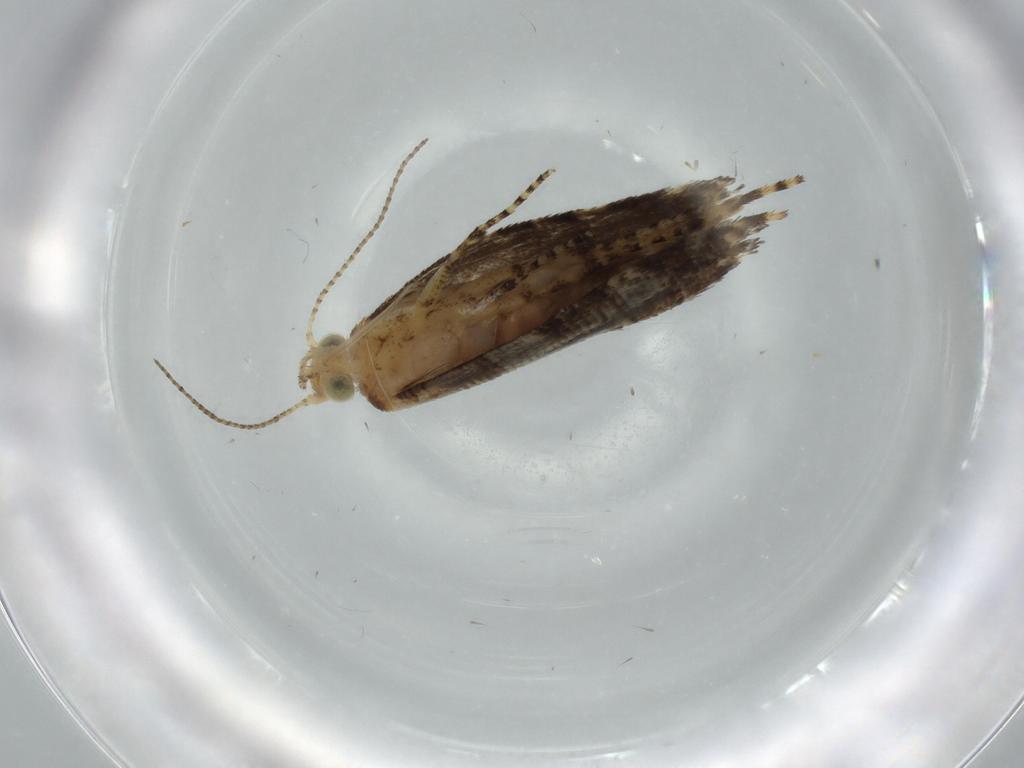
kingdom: Animalia
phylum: Arthropoda
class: Insecta
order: Lepidoptera
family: Glyphipterigidae
